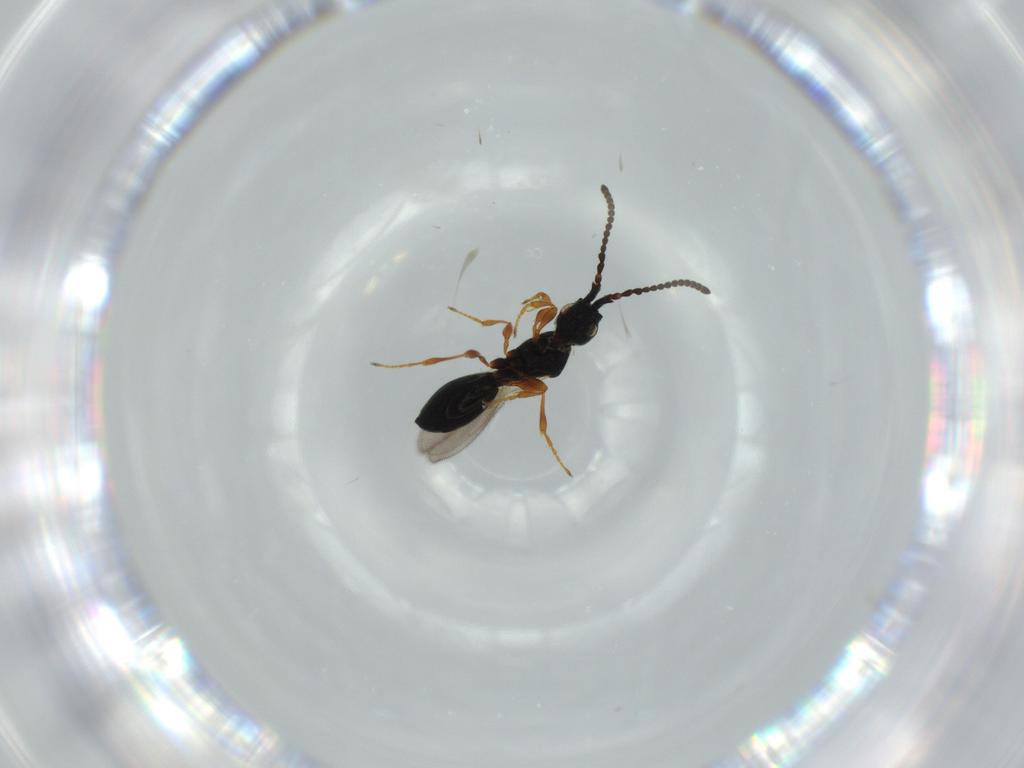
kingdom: Animalia
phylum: Arthropoda
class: Insecta
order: Hymenoptera
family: Diapriidae
